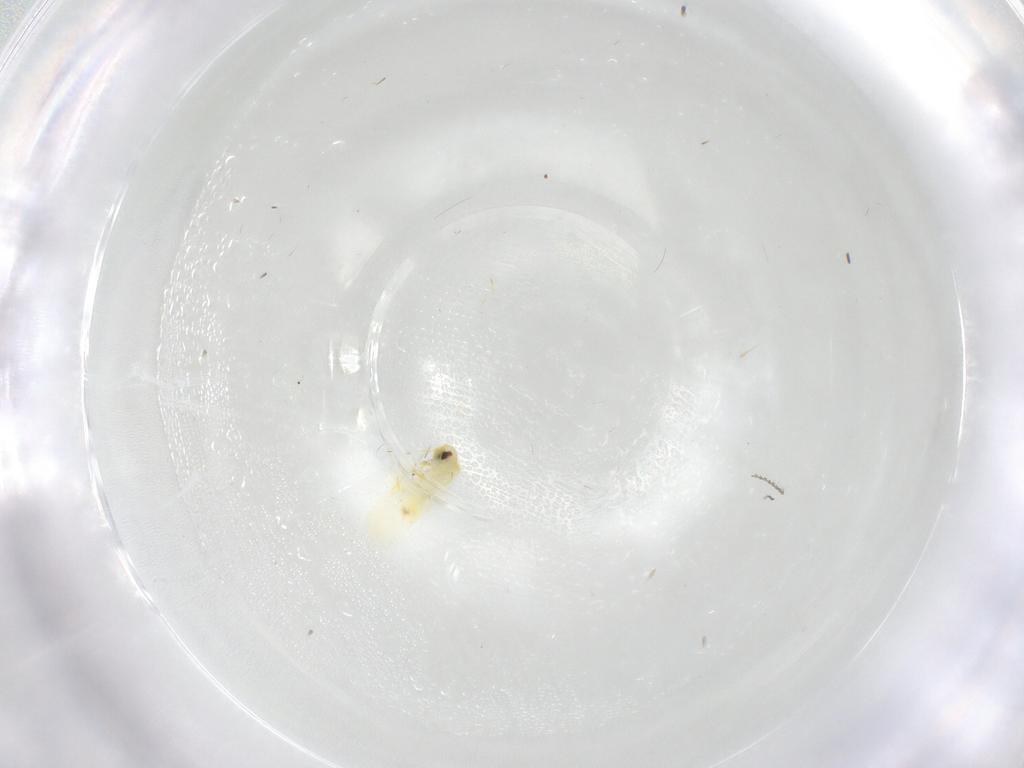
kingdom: Animalia
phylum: Arthropoda
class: Insecta
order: Hemiptera
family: Aleyrodidae
